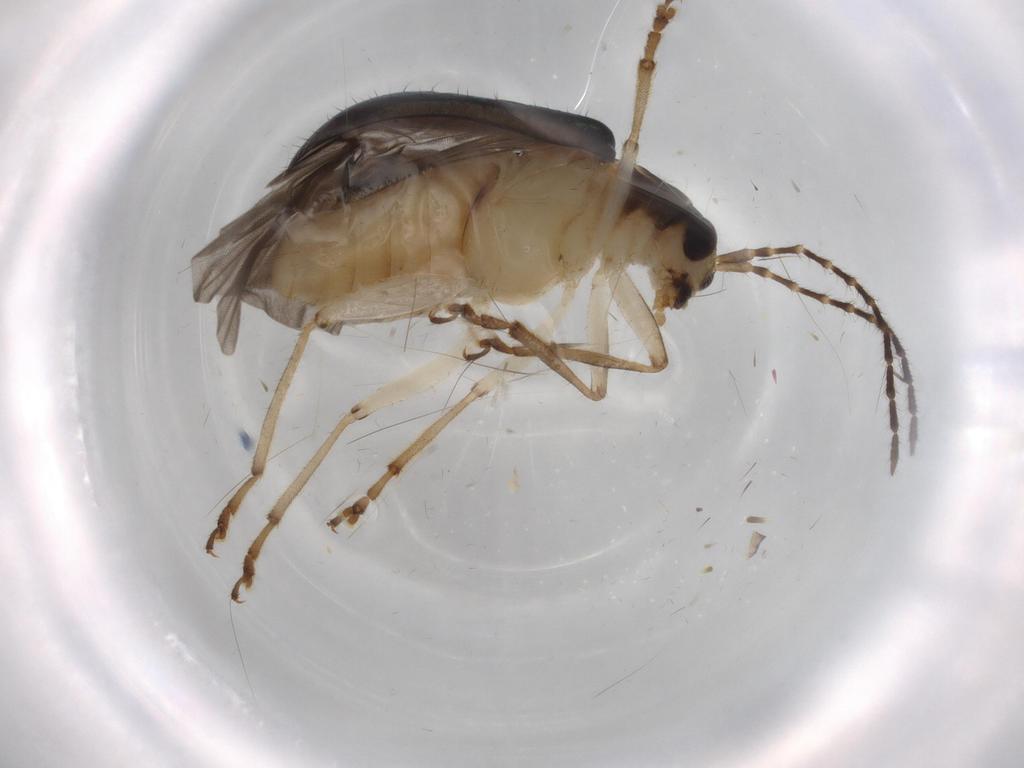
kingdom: Animalia
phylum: Arthropoda
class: Insecta
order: Coleoptera
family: Chrysomelidae
